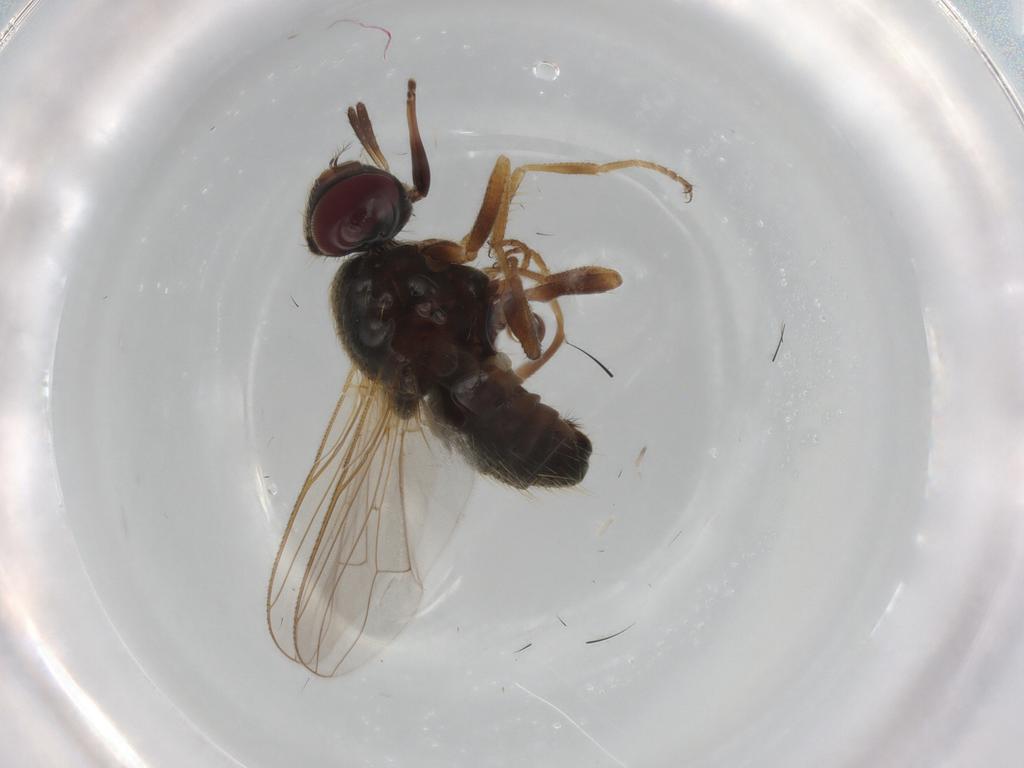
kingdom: Animalia
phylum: Arthropoda
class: Insecta
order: Diptera
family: Ceratopogonidae
